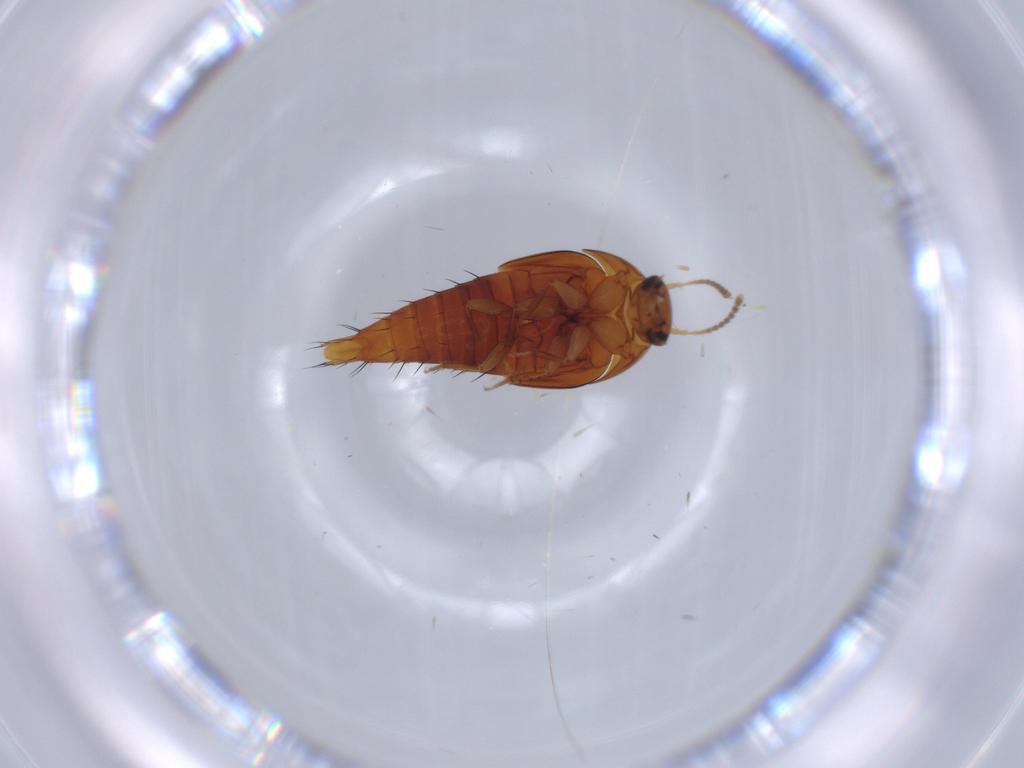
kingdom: Animalia
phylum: Arthropoda
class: Insecta
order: Coleoptera
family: Staphylinidae
